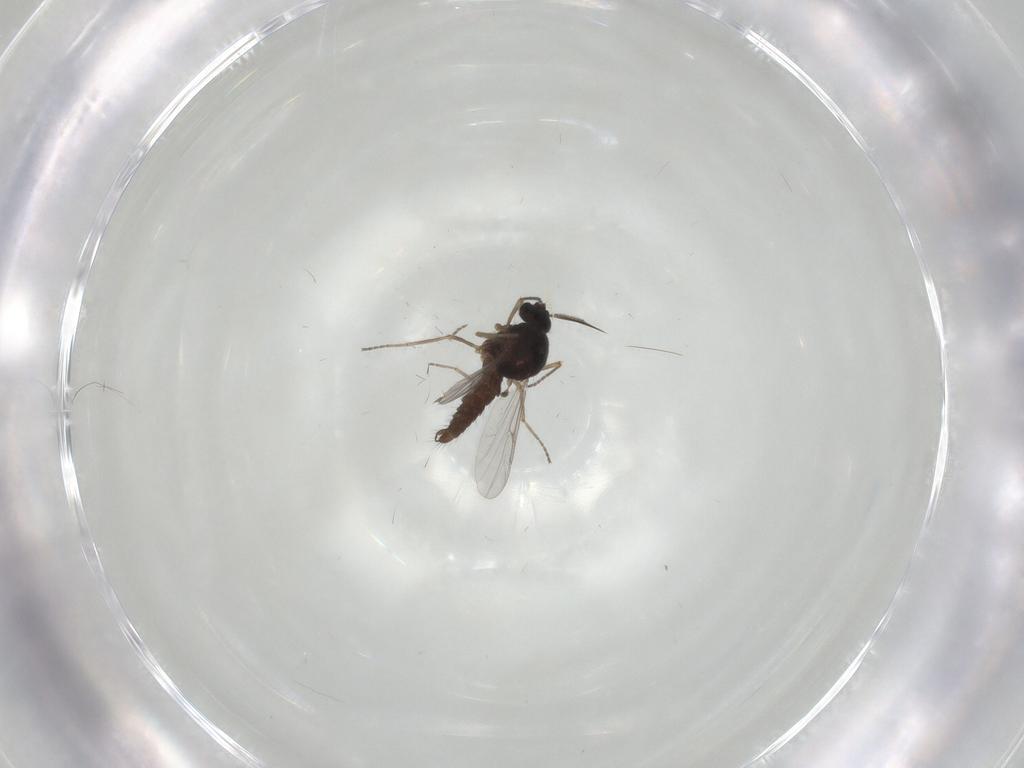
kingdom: Animalia
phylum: Arthropoda
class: Insecta
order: Diptera
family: Ceratopogonidae
